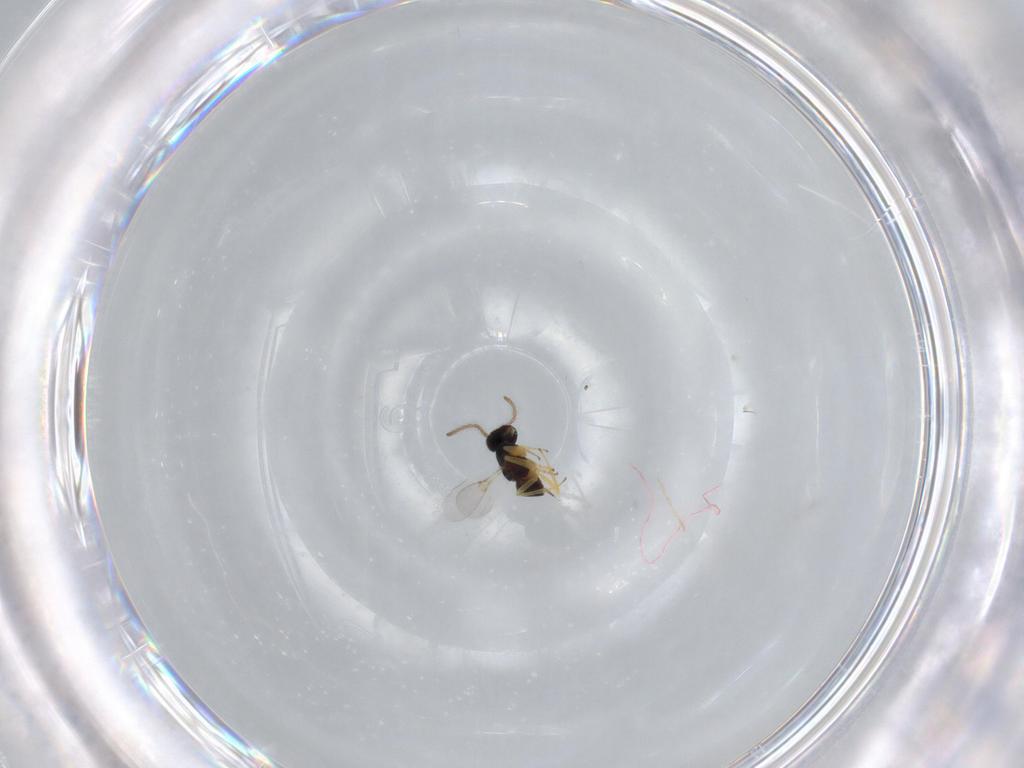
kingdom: Animalia
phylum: Arthropoda
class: Insecta
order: Hymenoptera
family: Encyrtidae
